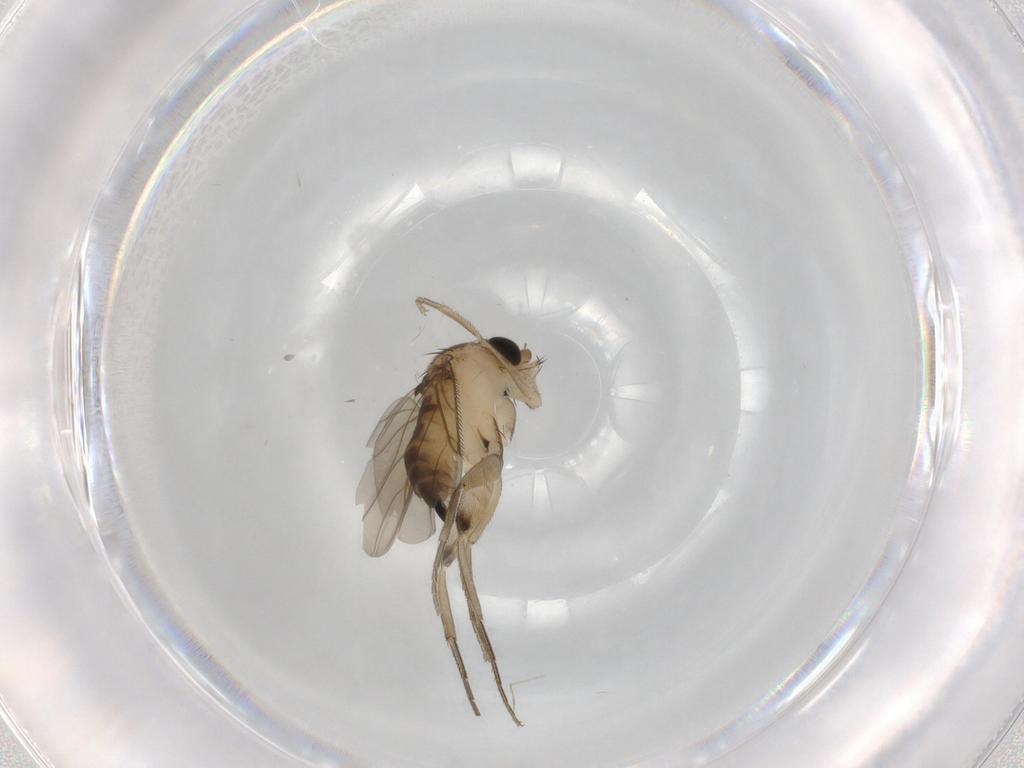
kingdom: Animalia
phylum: Arthropoda
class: Insecta
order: Diptera
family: Phoridae
